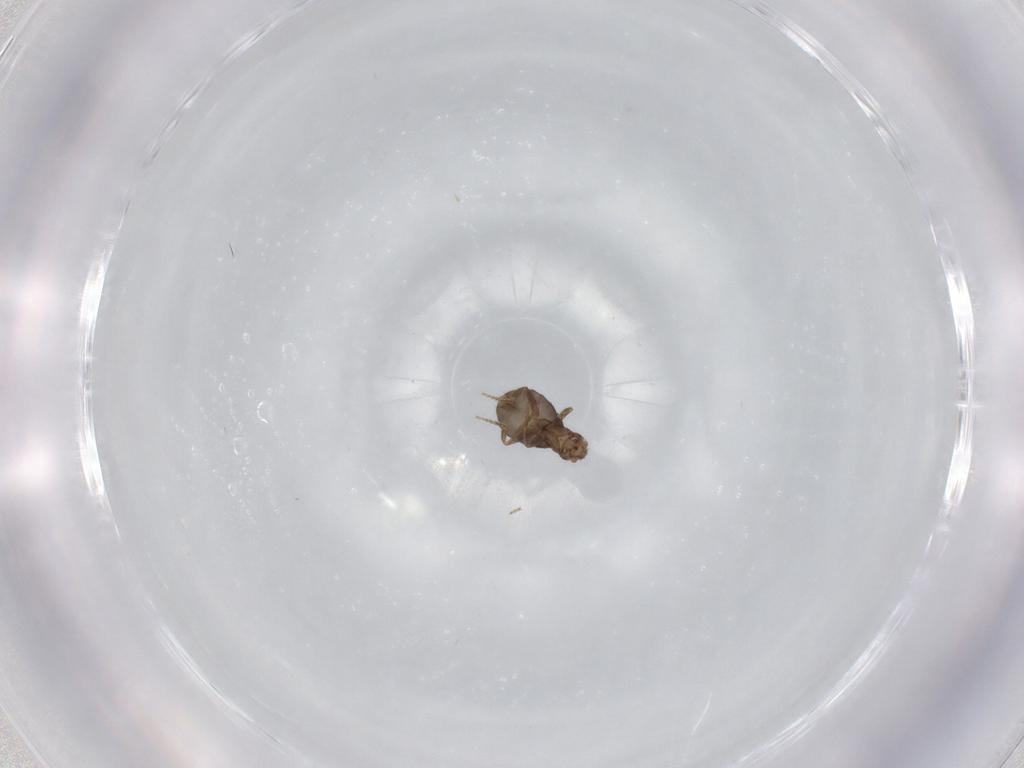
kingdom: Animalia
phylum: Arthropoda
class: Insecta
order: Diptera
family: Phoridae
